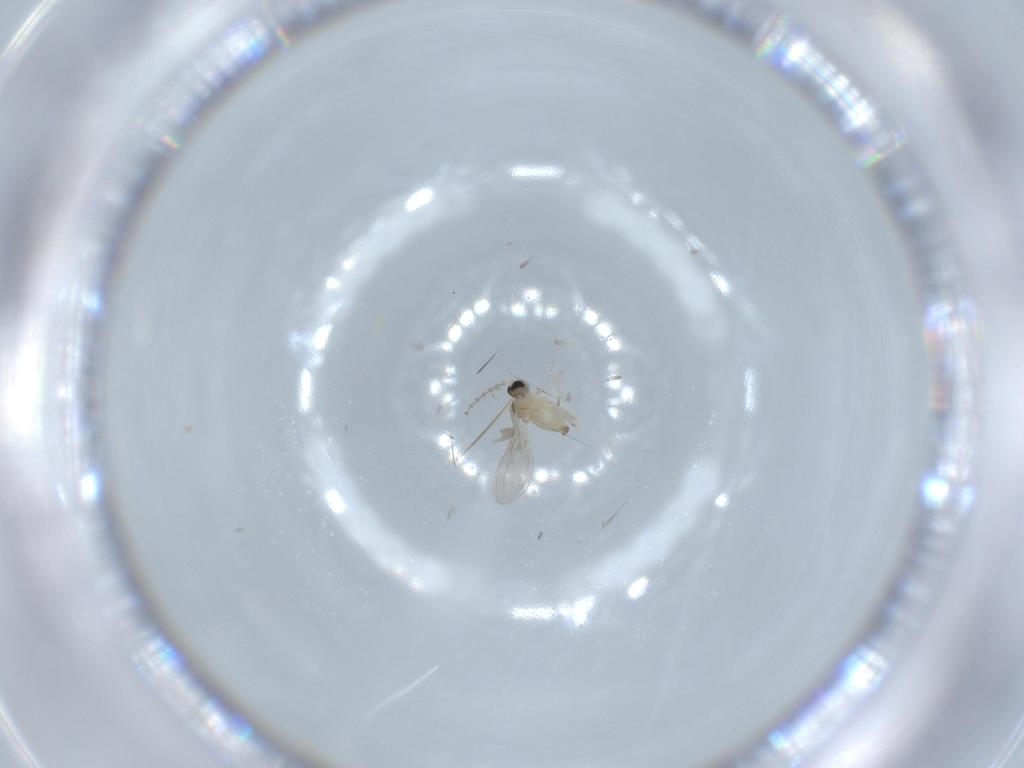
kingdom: Animalia
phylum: Arthropoda
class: Insecta
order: Diptera
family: Cecidomyiidae
